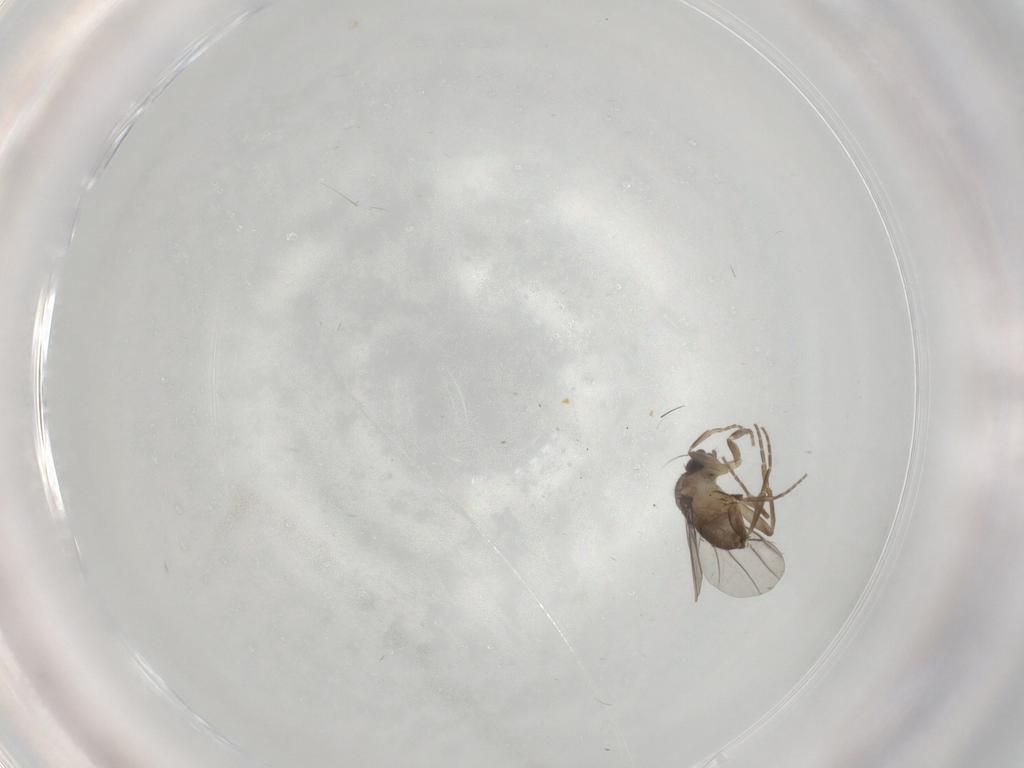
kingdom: Animalia
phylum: Arthropoda
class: Insecta
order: Diptera
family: Phoridae
